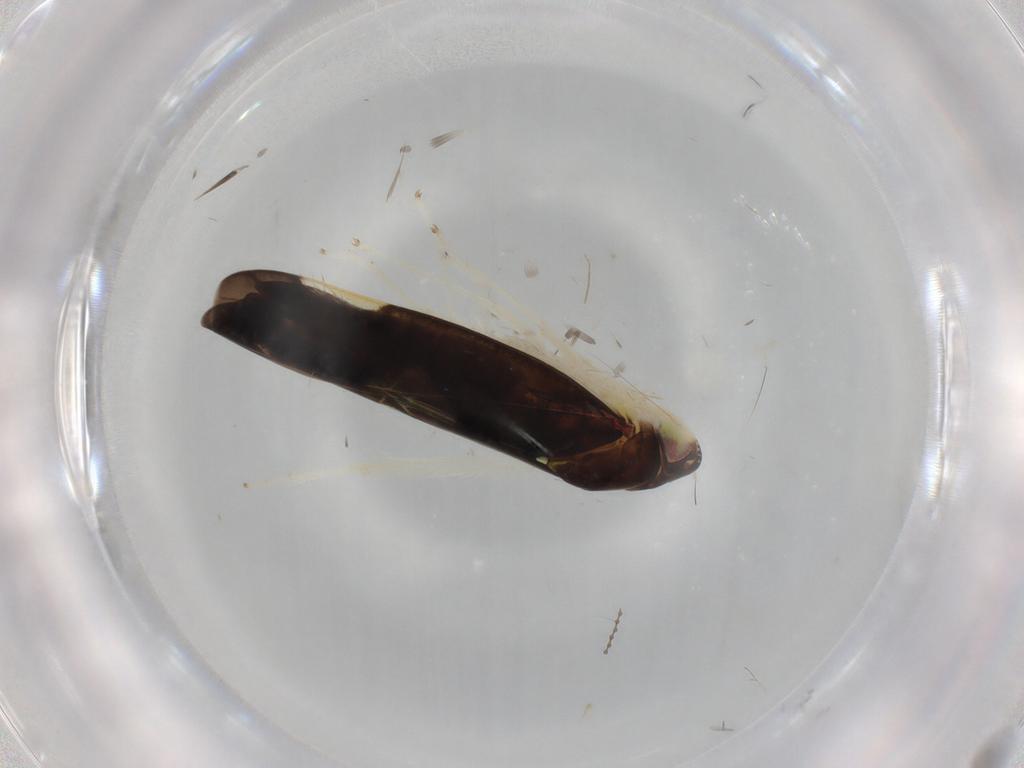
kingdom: Animalia
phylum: Arthropoda
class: Insecta
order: Hemiptera
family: Cicadellidae
